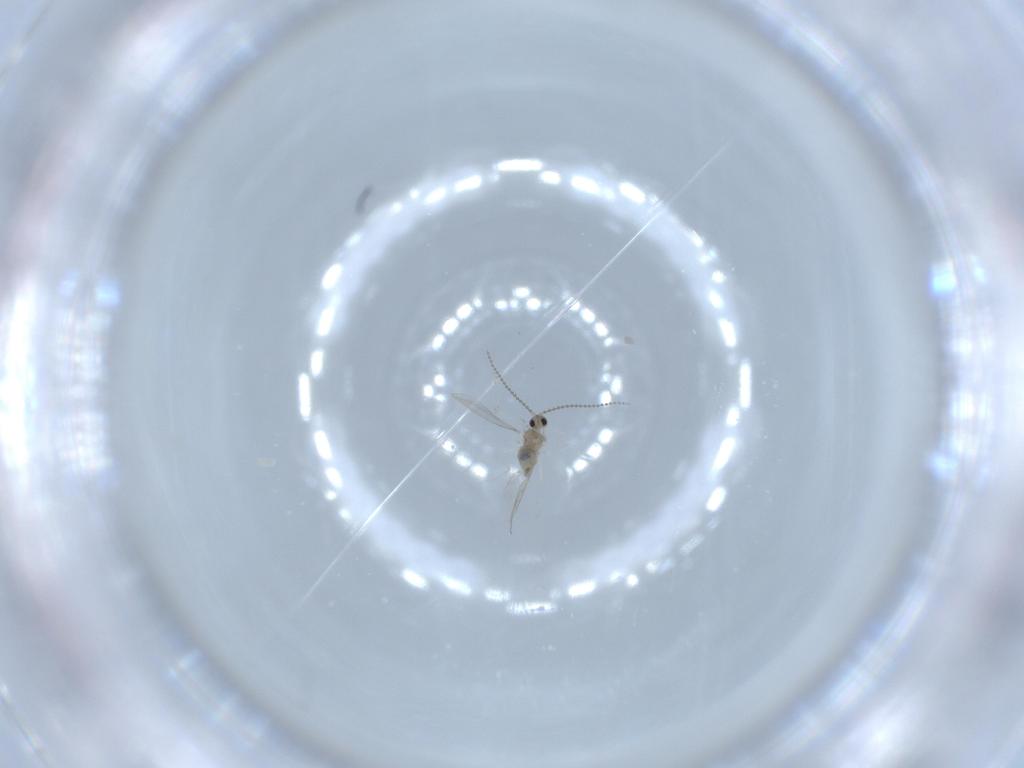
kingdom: Animalia
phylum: Arthropoda
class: Insecta
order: Diptera
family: Cecidomyiidae
